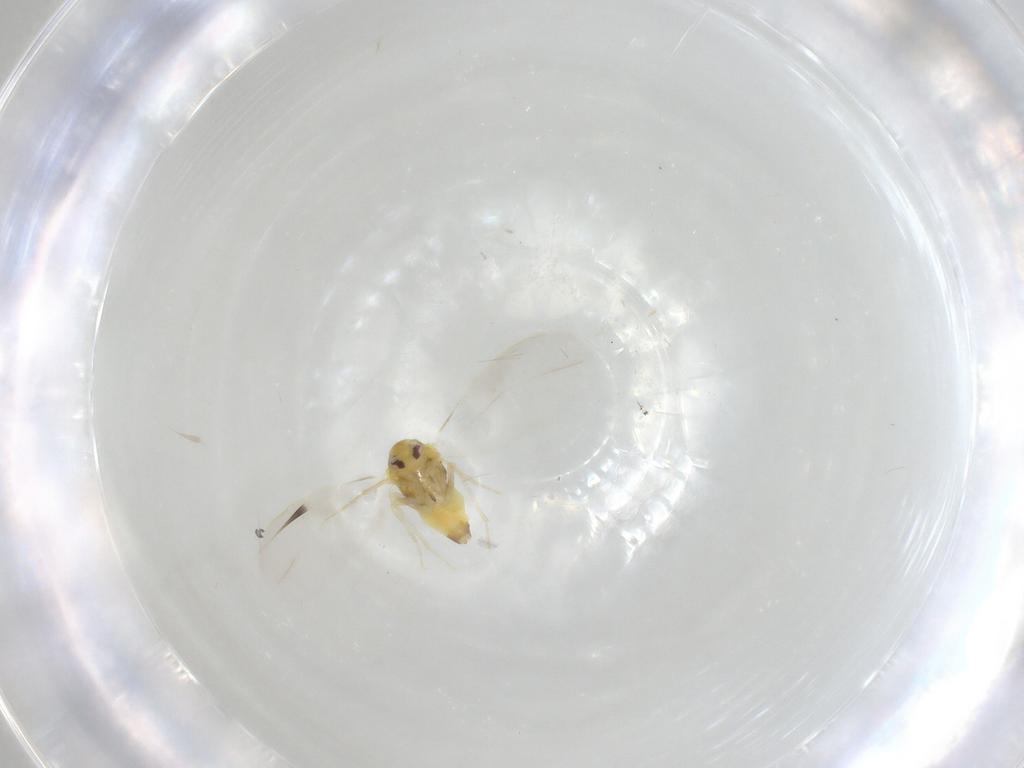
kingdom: Animalia
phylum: Arthropoda
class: Insecta
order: Hemiptera
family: Aleyrodidae
